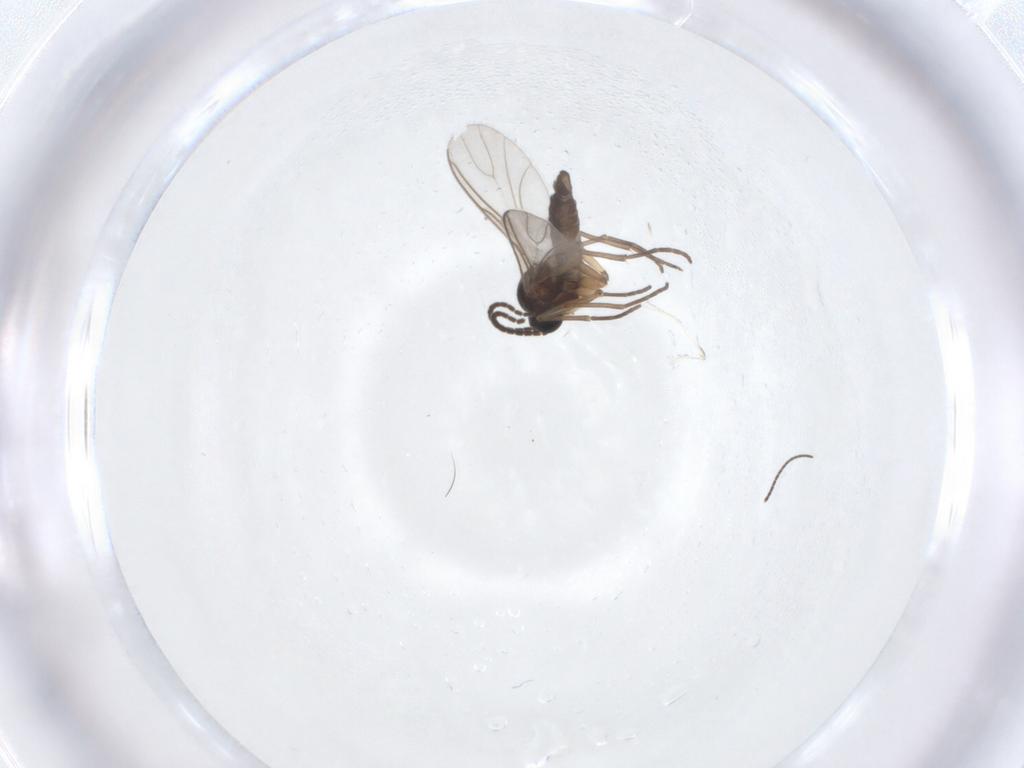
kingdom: Animalia
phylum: Arthropoda
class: Insecta
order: Diptera
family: Sciaridae
